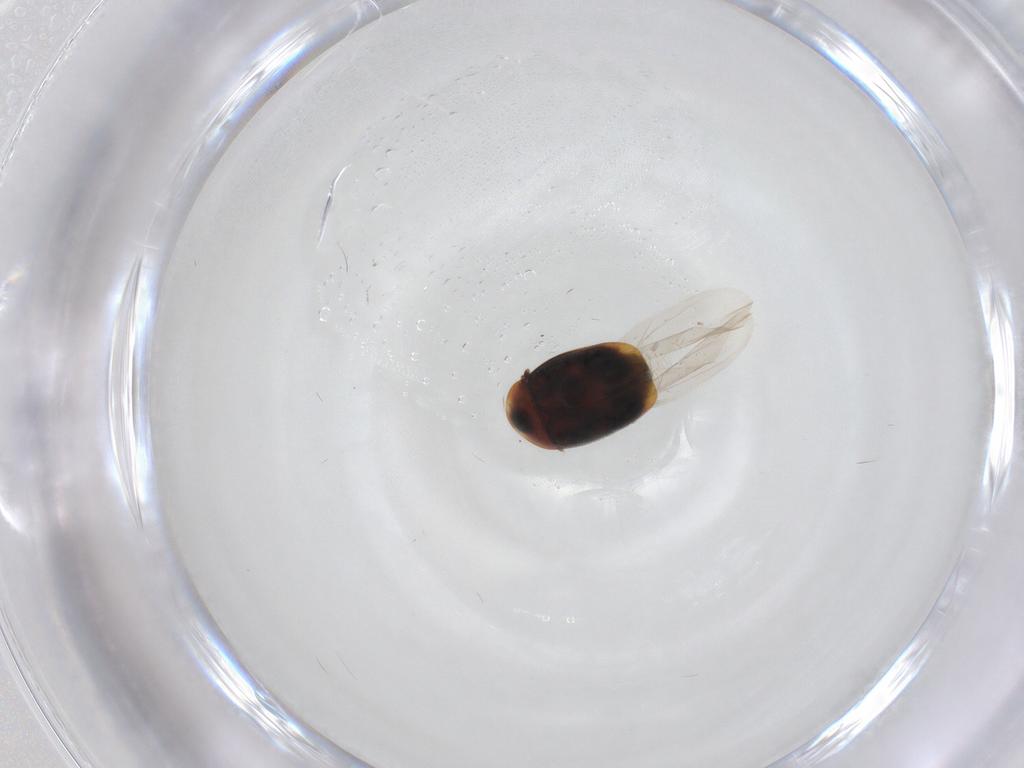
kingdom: Animalia
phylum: Arthropoda
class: Insecta
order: Coleoptera
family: Corylophidae
